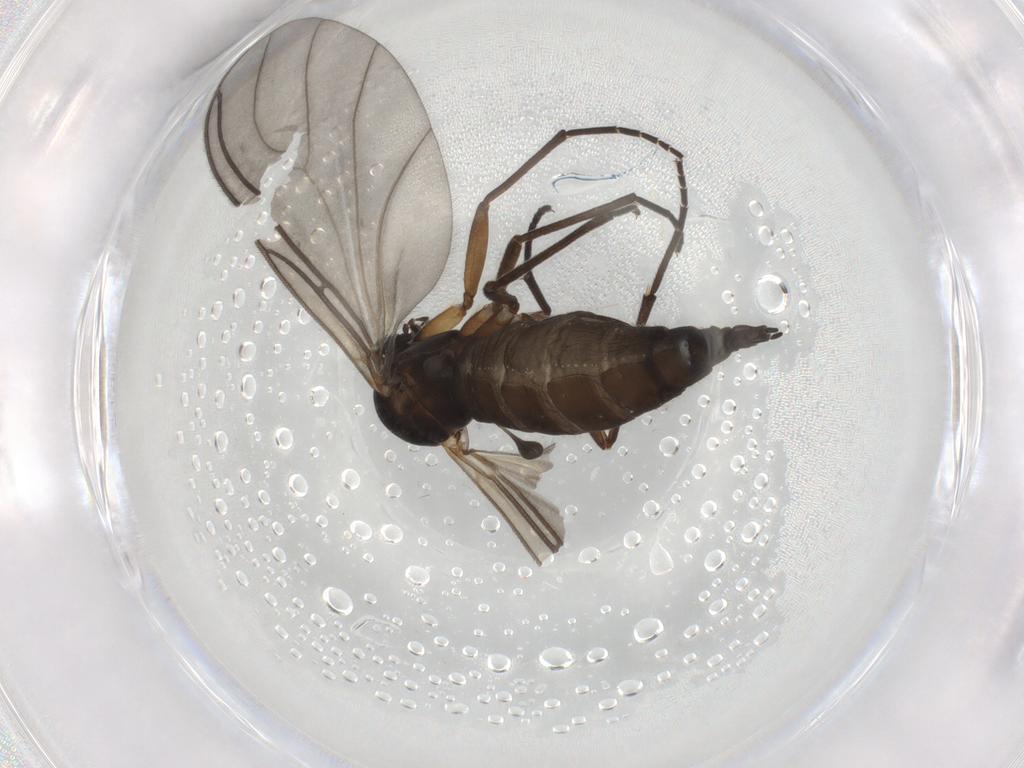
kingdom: Animalia
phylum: Arthropoda
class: Insecta
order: Diptera
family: Sciaridae
